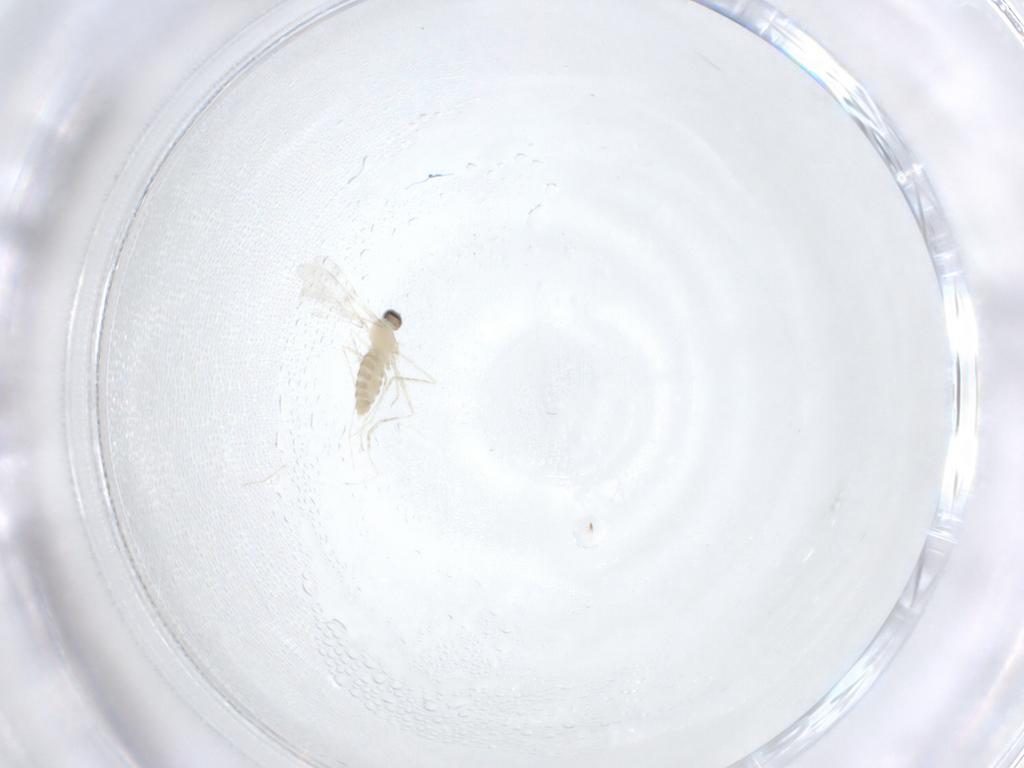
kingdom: Animalia
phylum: Arthropoda
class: Insecta
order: Diptera
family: Cecidomyiidae
